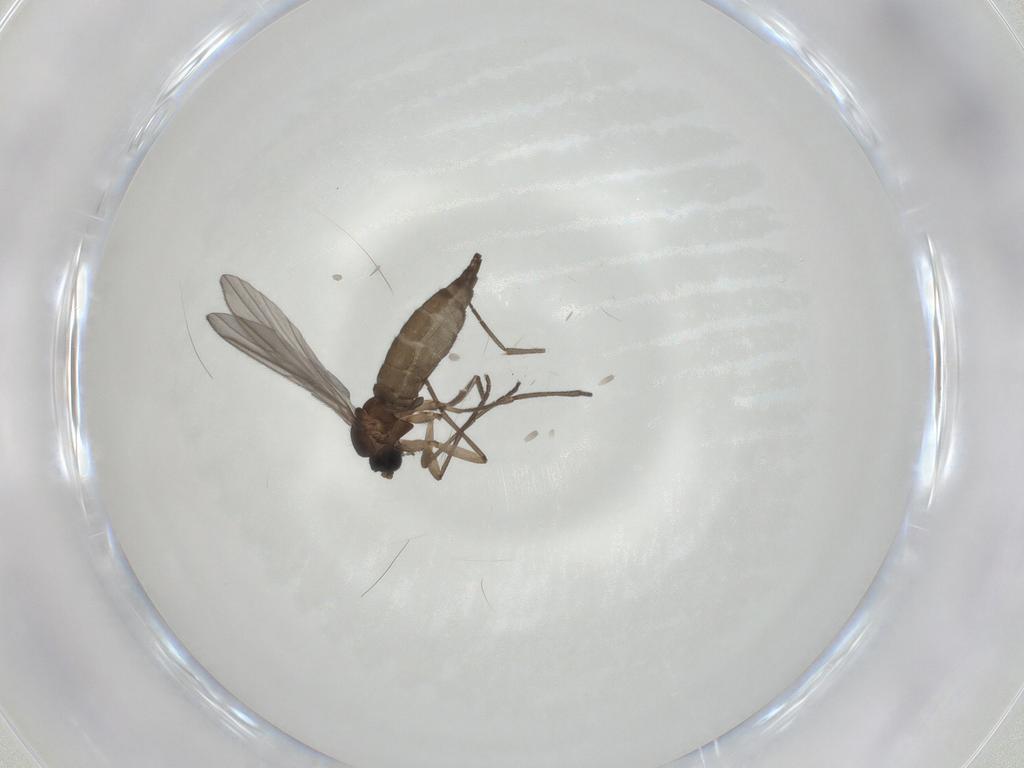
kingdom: Animalia
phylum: Arthropoda
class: Insecta
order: Diptera
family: Sciaridae
